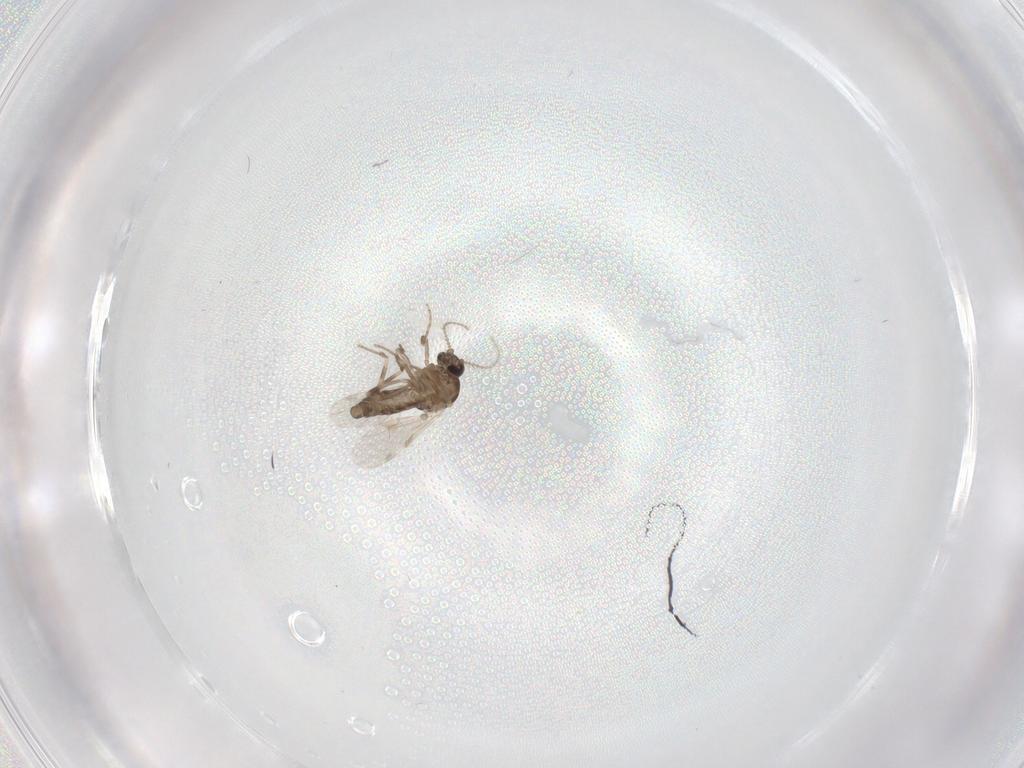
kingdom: Animalia
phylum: Arthropoda
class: Insecta
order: Diptera
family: Ceratopogonidae
